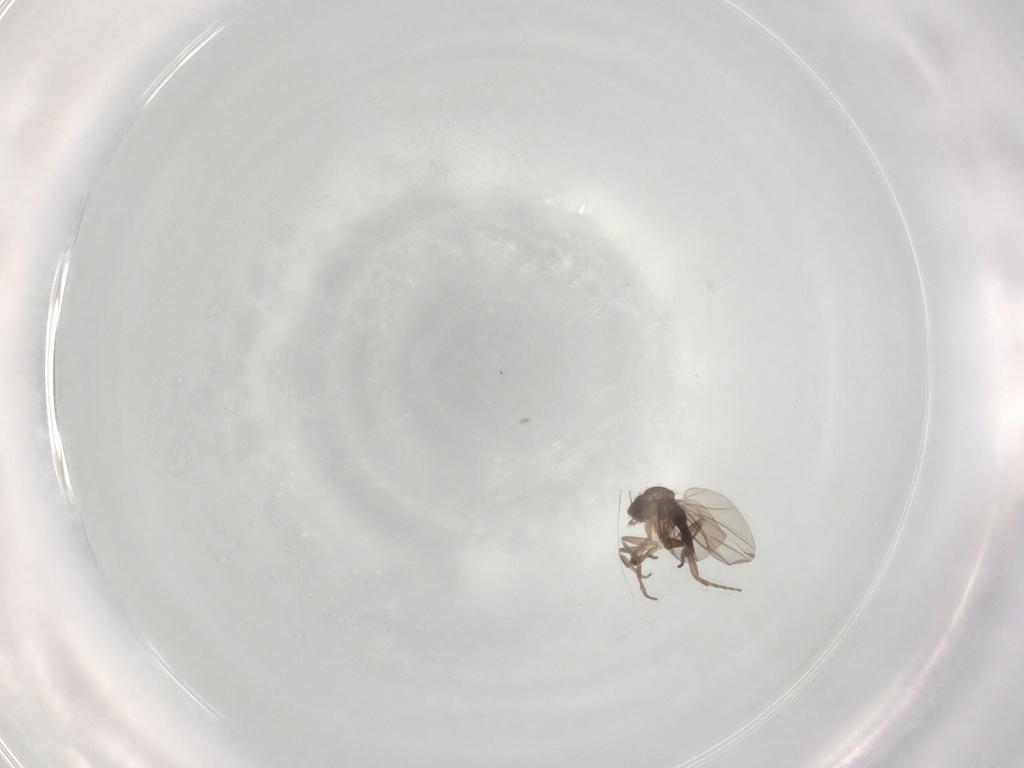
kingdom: Animalia
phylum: Arthropoda
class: Insecta
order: Diptera
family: Phoridae
